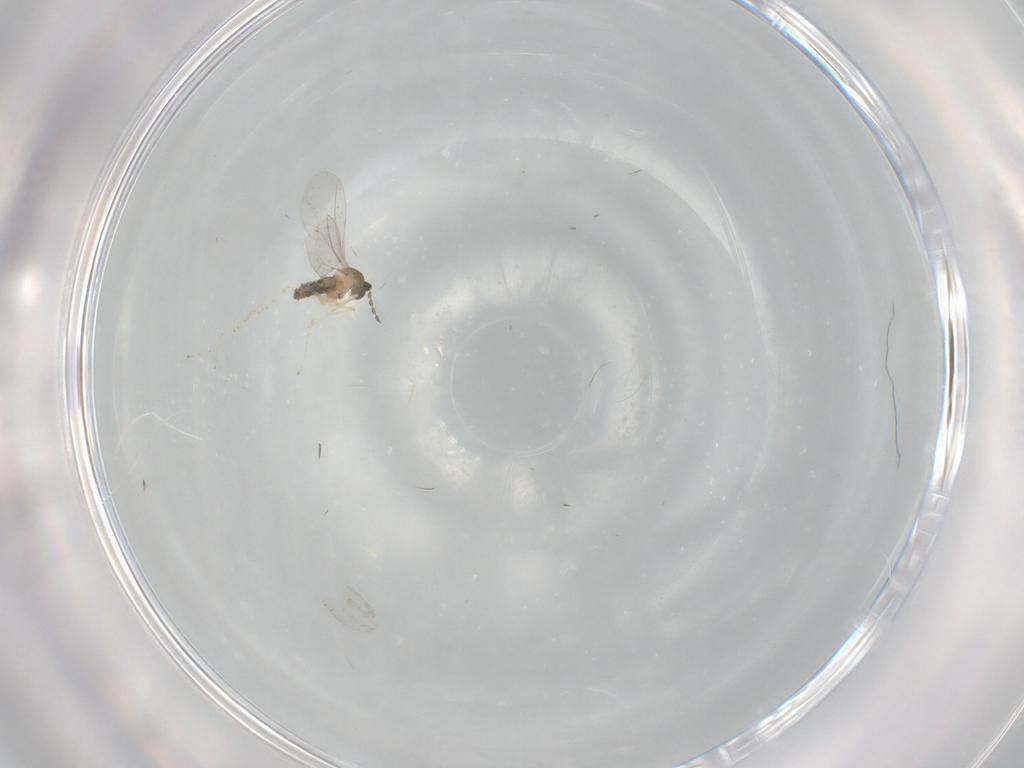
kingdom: Animalia
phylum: Arthropoda
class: Insecta
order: Diptera
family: Cecidomyiidae
